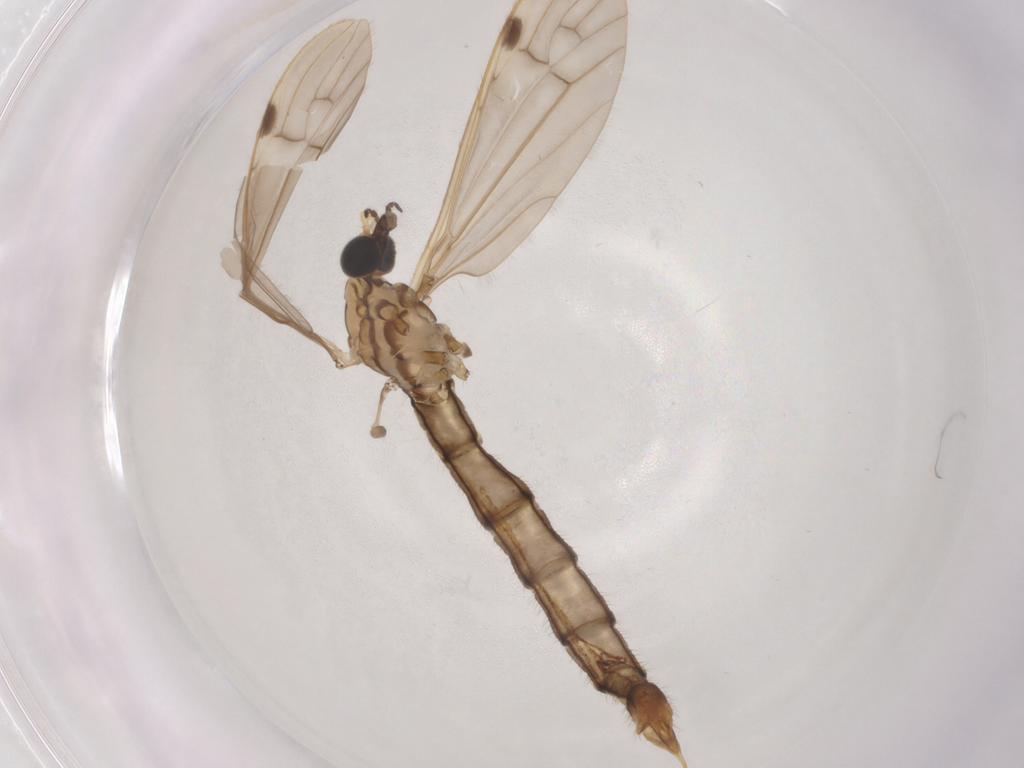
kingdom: Animalia
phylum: Arthropoda
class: Insecta
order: Diptera
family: Limoniidae
